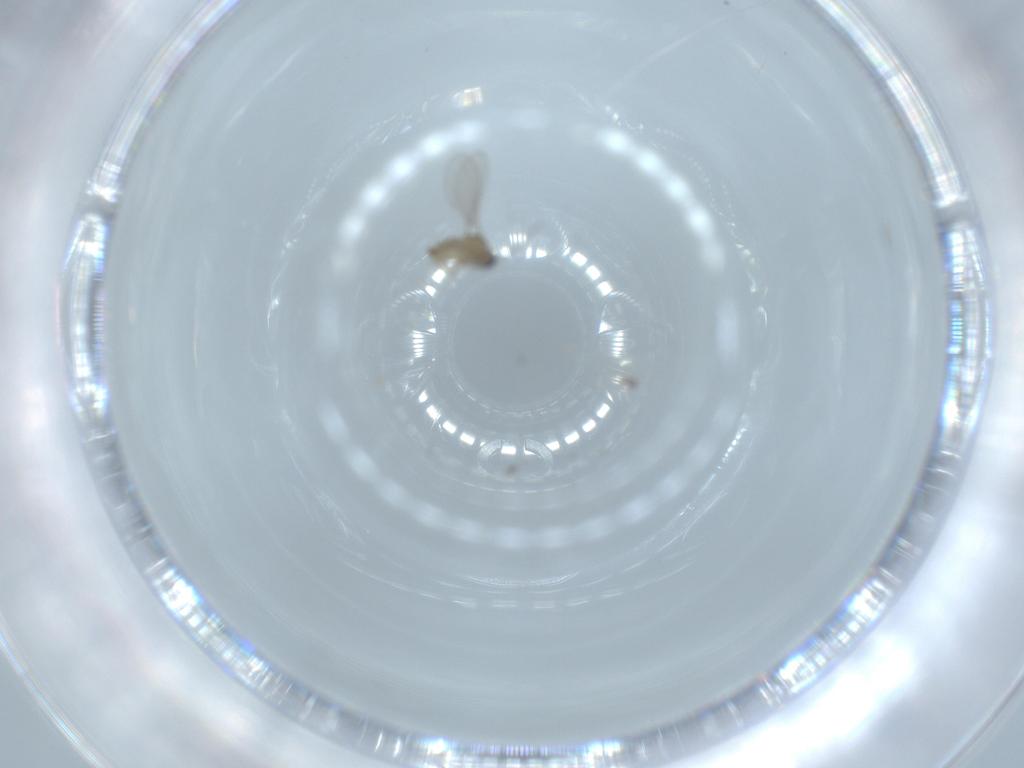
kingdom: Animalia
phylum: Arthropoda
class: Insecta
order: Diptera
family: Cecidomyiidae
